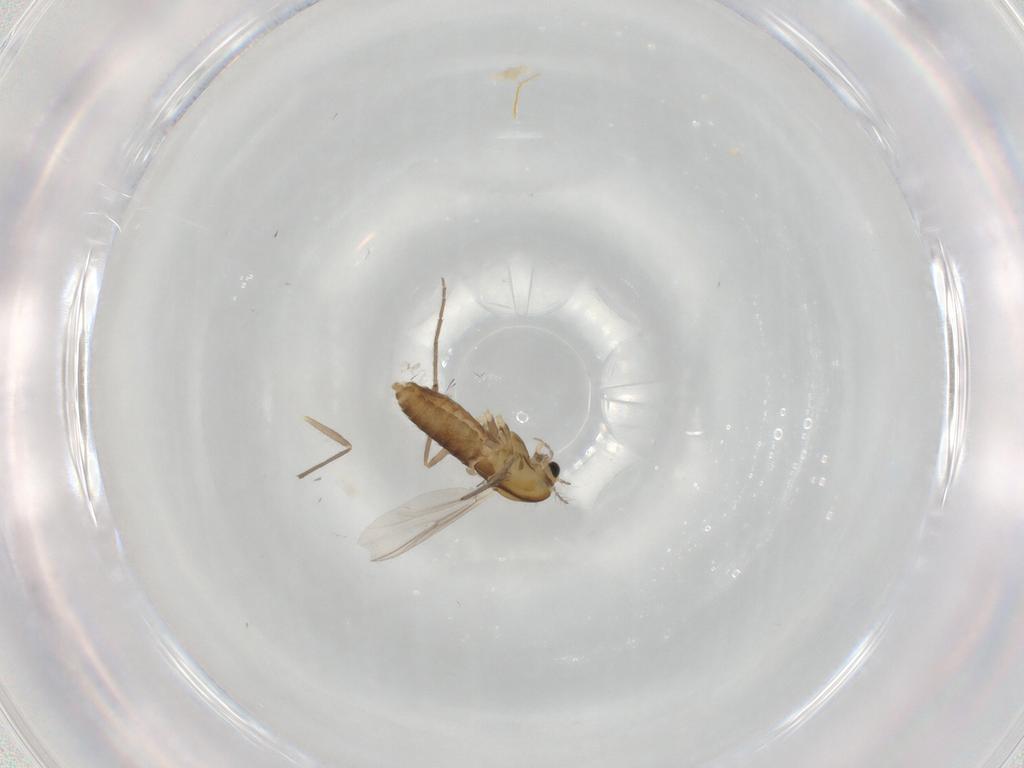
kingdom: Animalia
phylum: Arthropoda
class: Insecta
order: Diptera
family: Chironomidae
